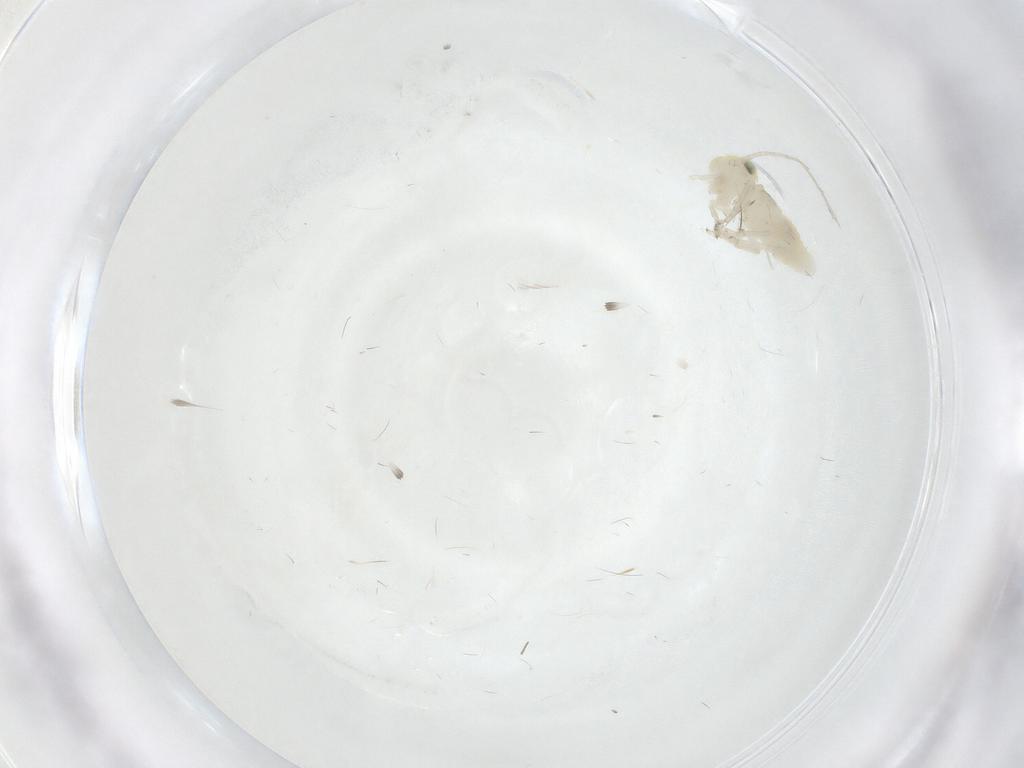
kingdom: Animalia
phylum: Arthropoda
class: Insecta
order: Psocodea
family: Caeciliusidae
